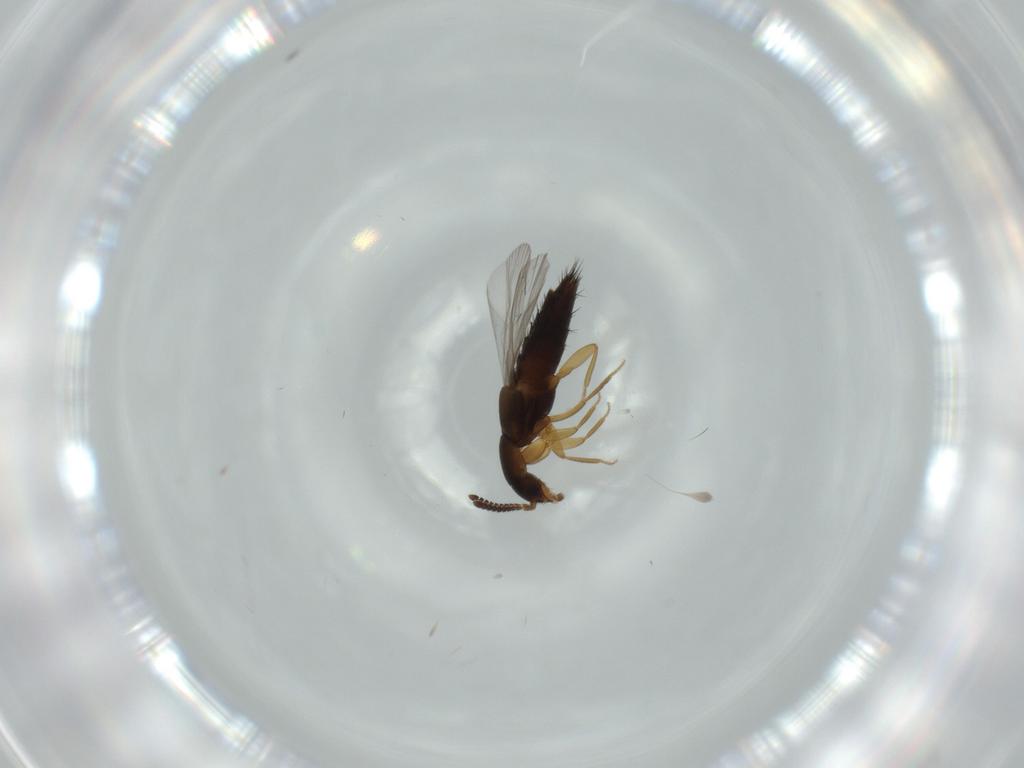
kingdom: Animalia
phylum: Arthropoda
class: Insecta
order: Coleoptera
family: Staphylinidae
